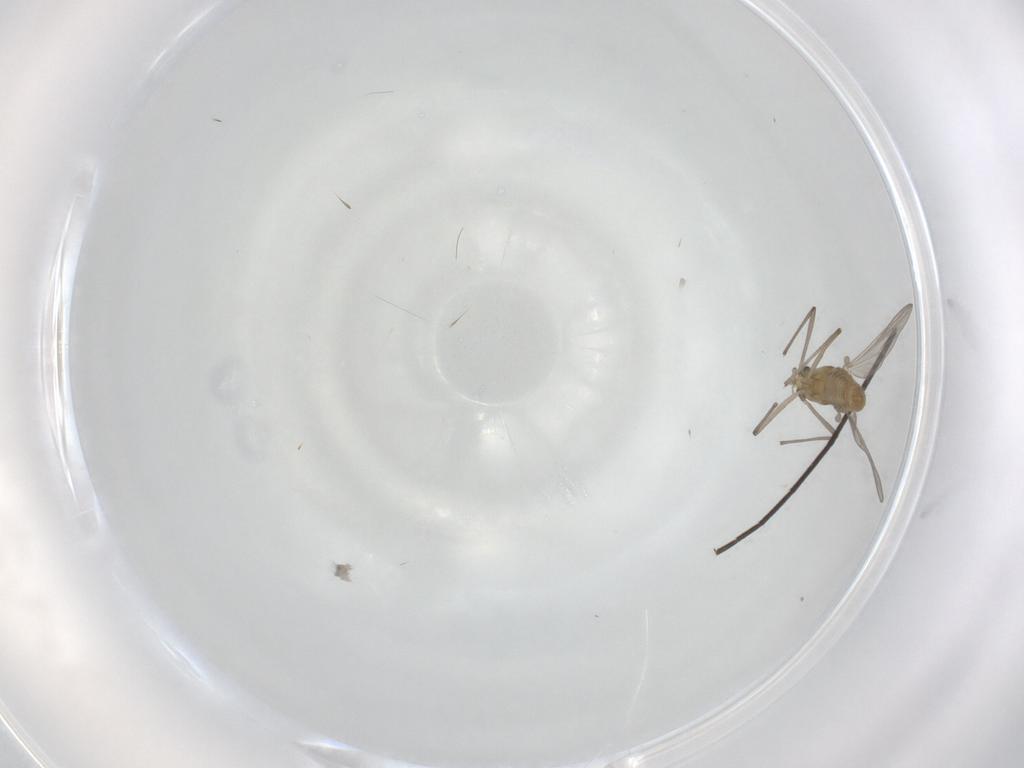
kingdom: Animalia
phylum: Arthropoda
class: Insecta
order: Diptera
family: Chironomidae
